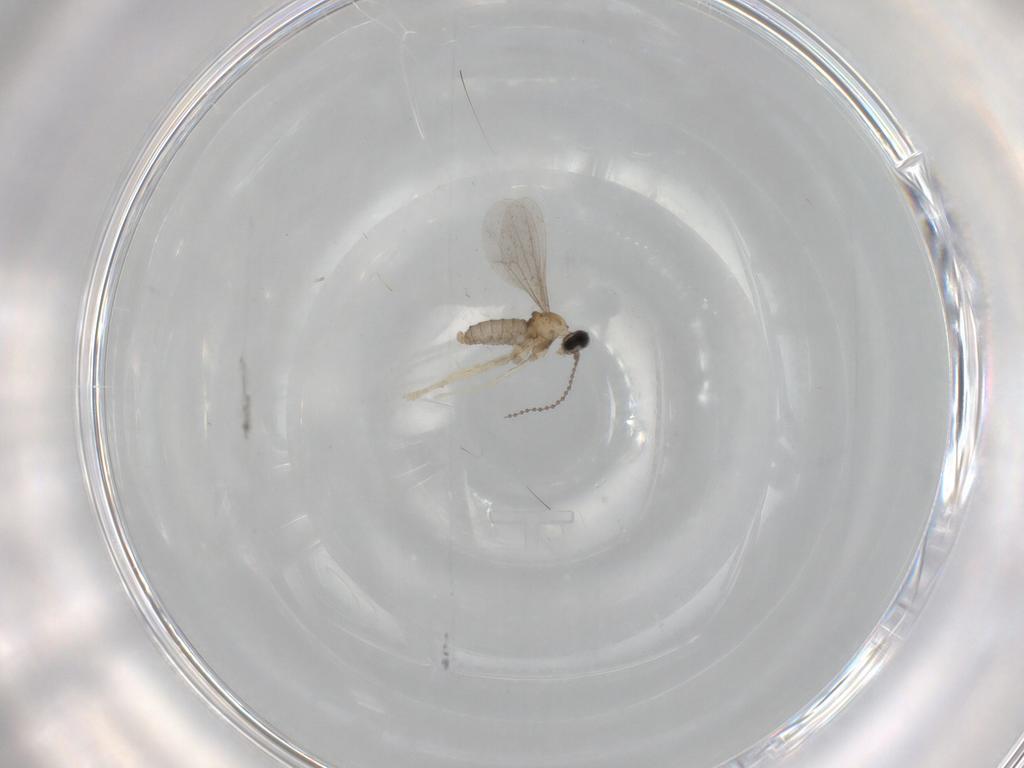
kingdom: Animalia
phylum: Arthropoda
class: Insecta
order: Diptera
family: Cecidomyiidae
